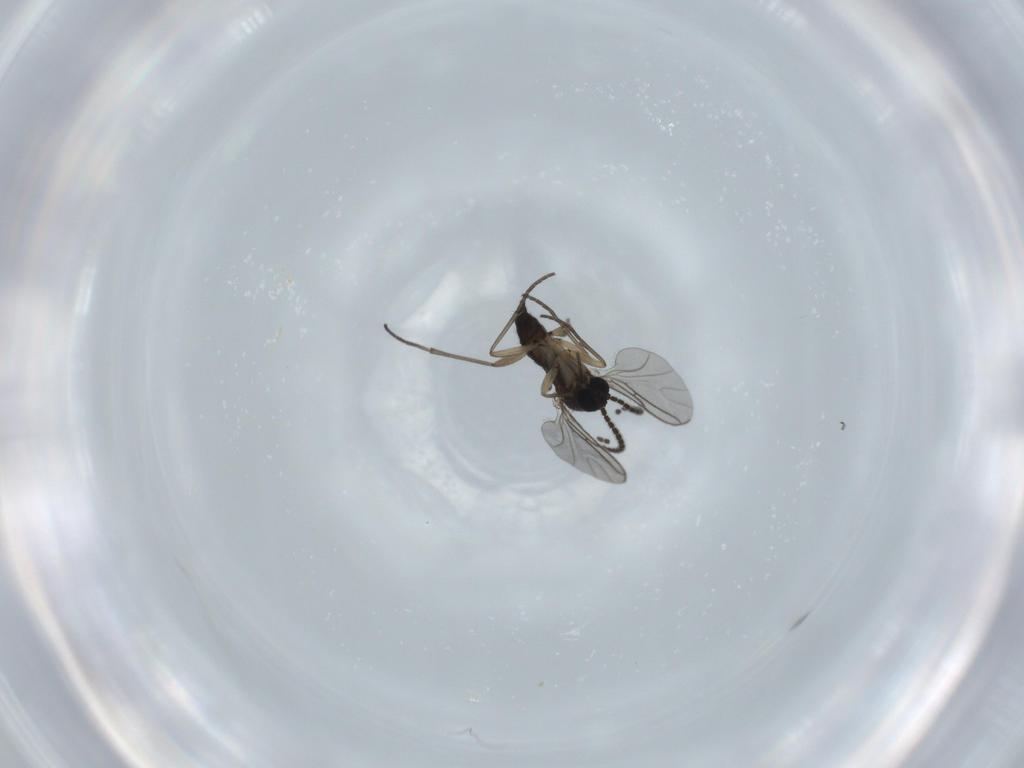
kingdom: Animalia
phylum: Arthropoda
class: Insecta
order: Diptera
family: Sciaridae
